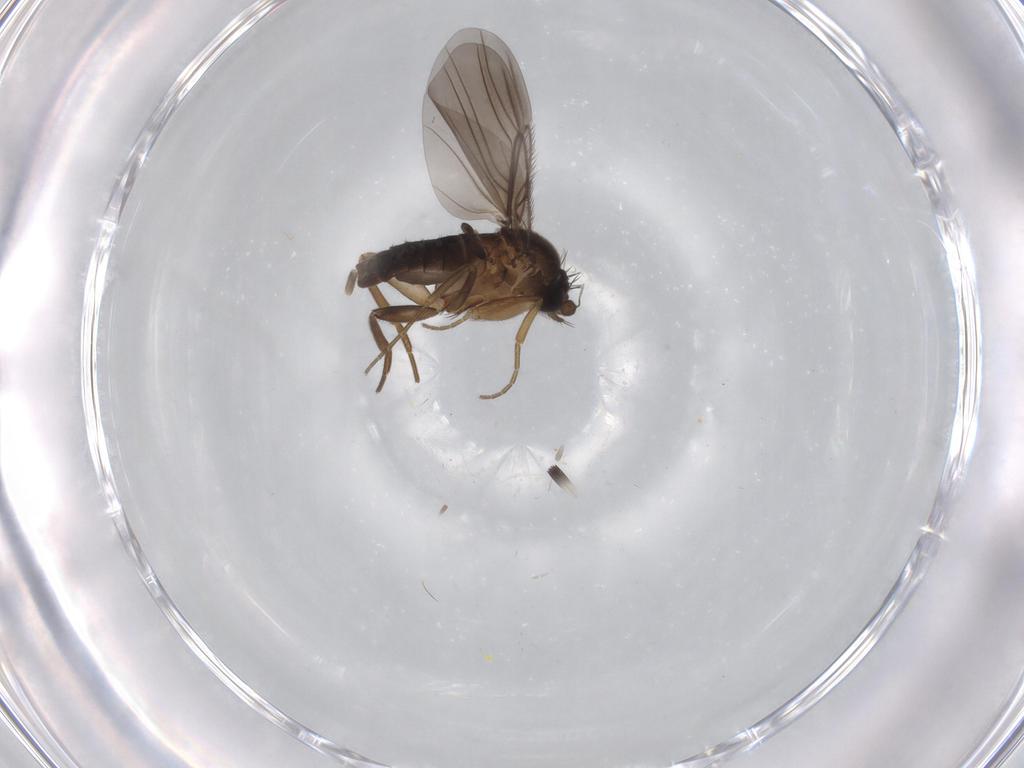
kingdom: Animalia
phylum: Arthropoda
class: Insecta
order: Diptera
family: Phoridae
